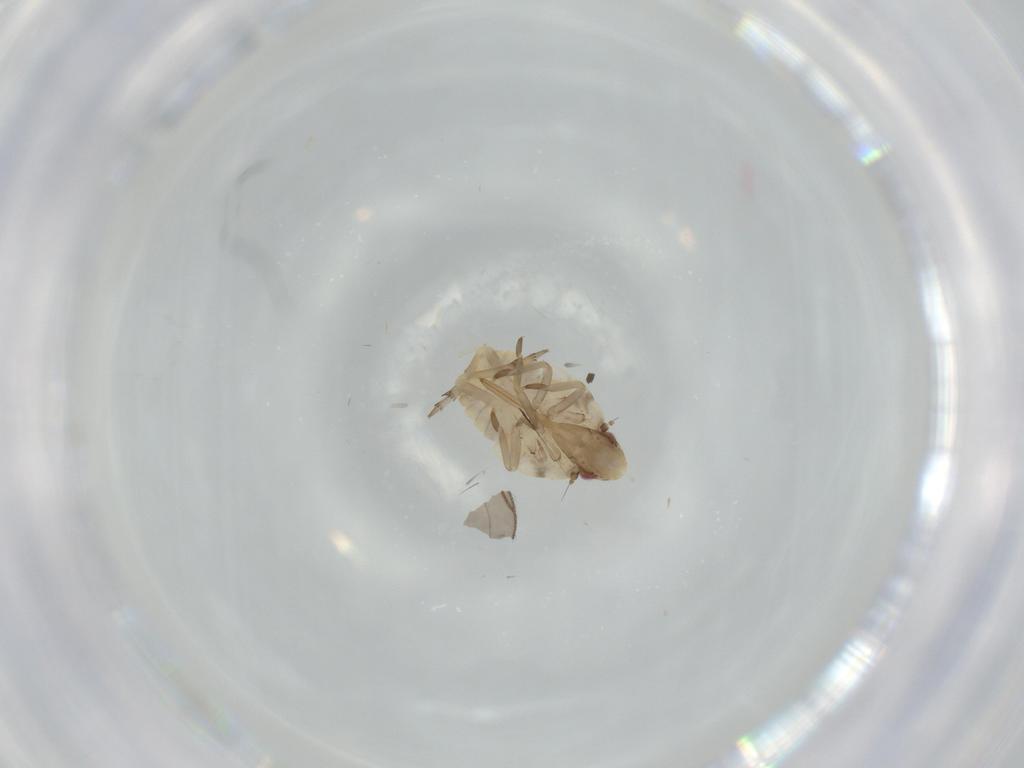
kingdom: Animalia
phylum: Arthropoda
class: Insecta
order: Hemiptera
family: Flatidae
